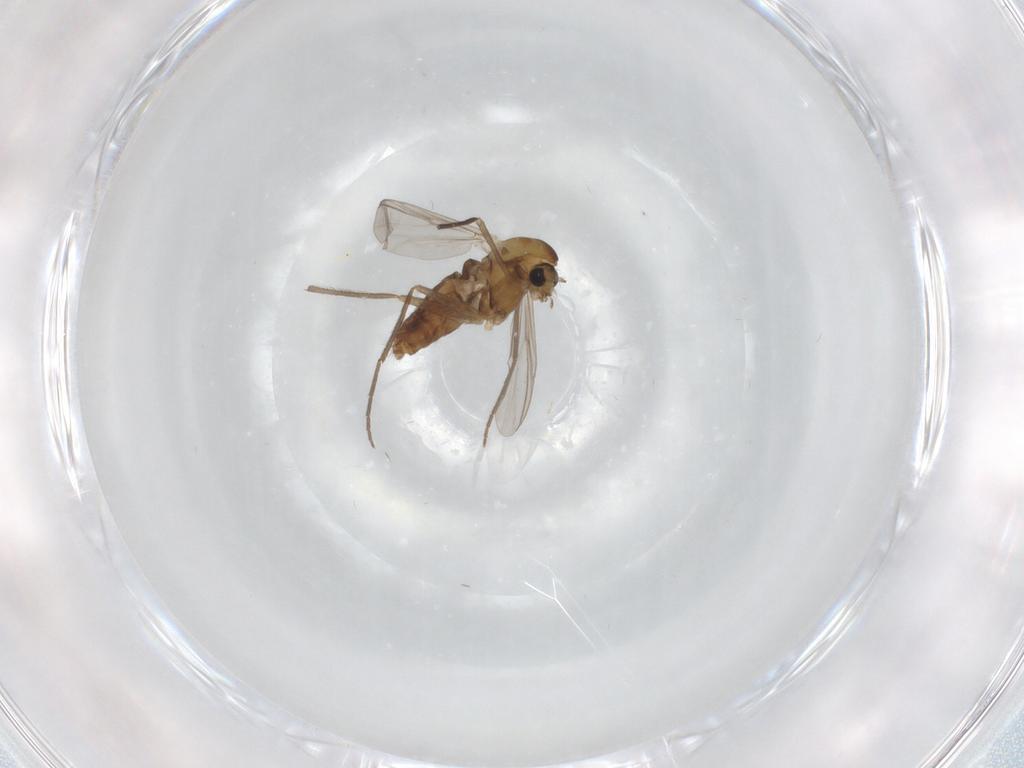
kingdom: Animalia
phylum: Arthropoda
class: Insecta
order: Diptera
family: Chironomidae
